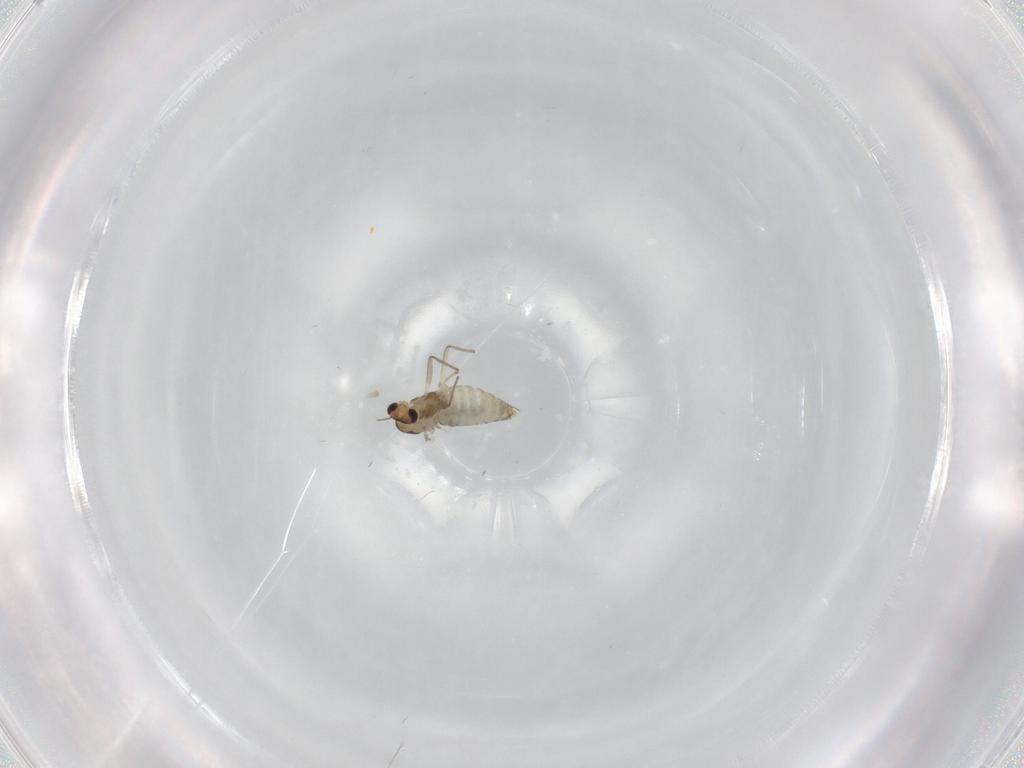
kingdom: Animalia
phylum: Arthropoda
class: Insecta
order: Diptera
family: Cecidomyiidae
